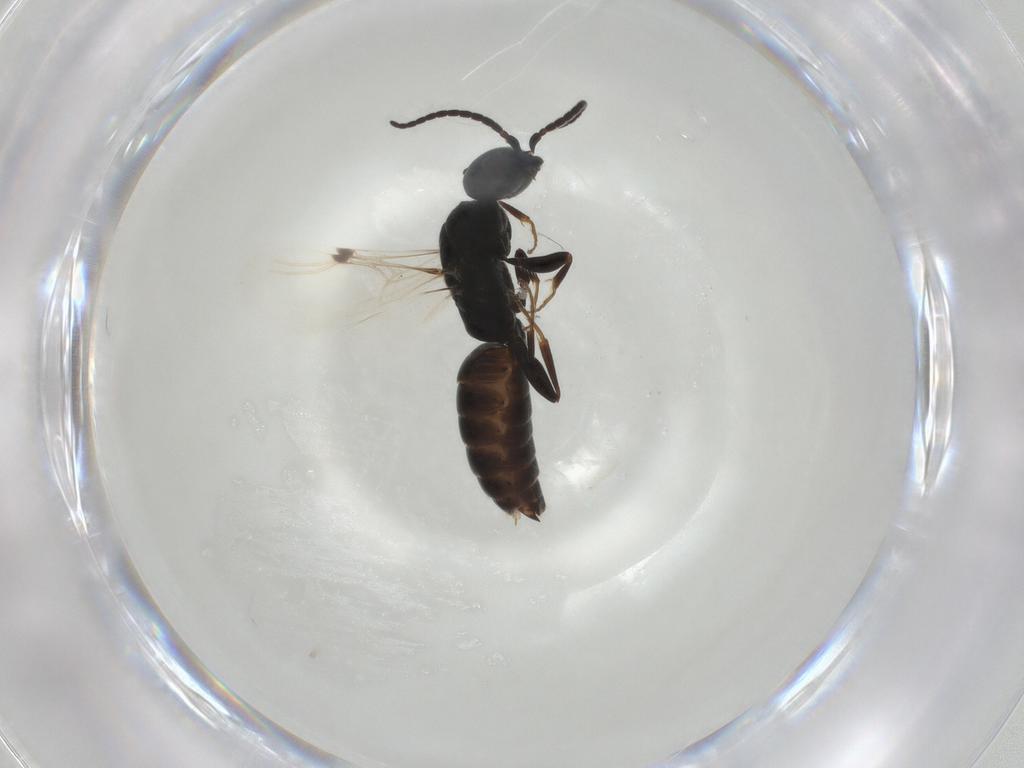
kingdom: Animalia
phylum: Arthropoda
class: Insecta
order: Hymenoptera
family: Bethylidae
